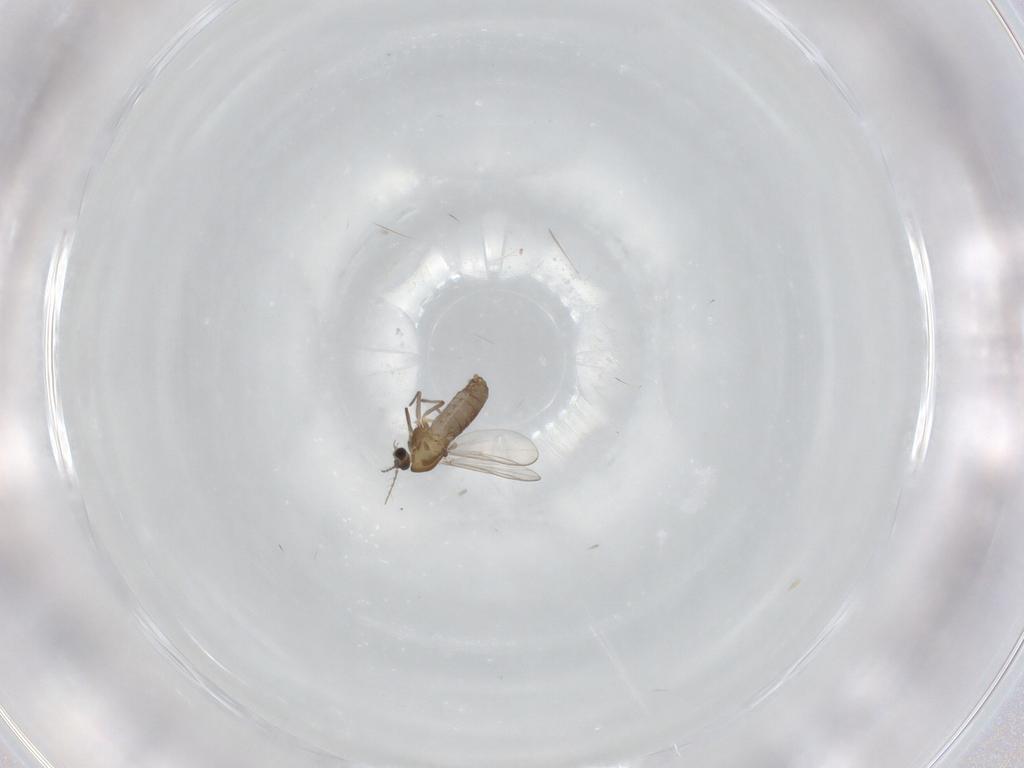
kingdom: Animalia
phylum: Arthropoda
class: Insecta
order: Diptera
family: Chironomidae
